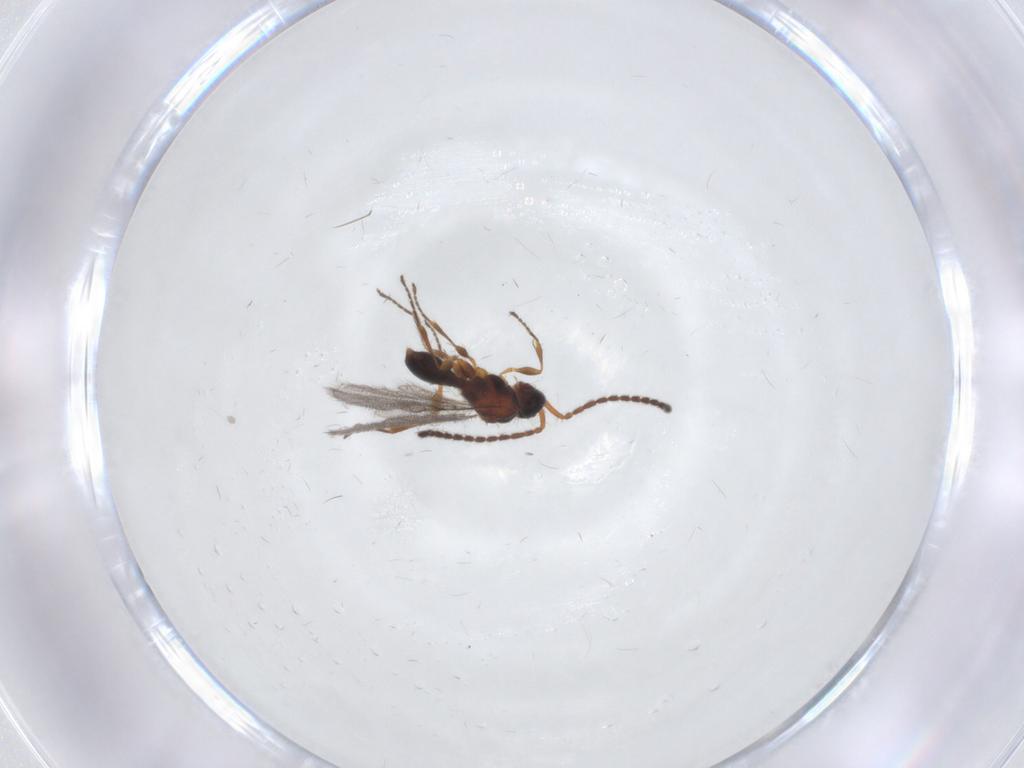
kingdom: Animalia
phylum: Arthropoda
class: Insecta
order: Hymenoptera
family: Diapriidae
